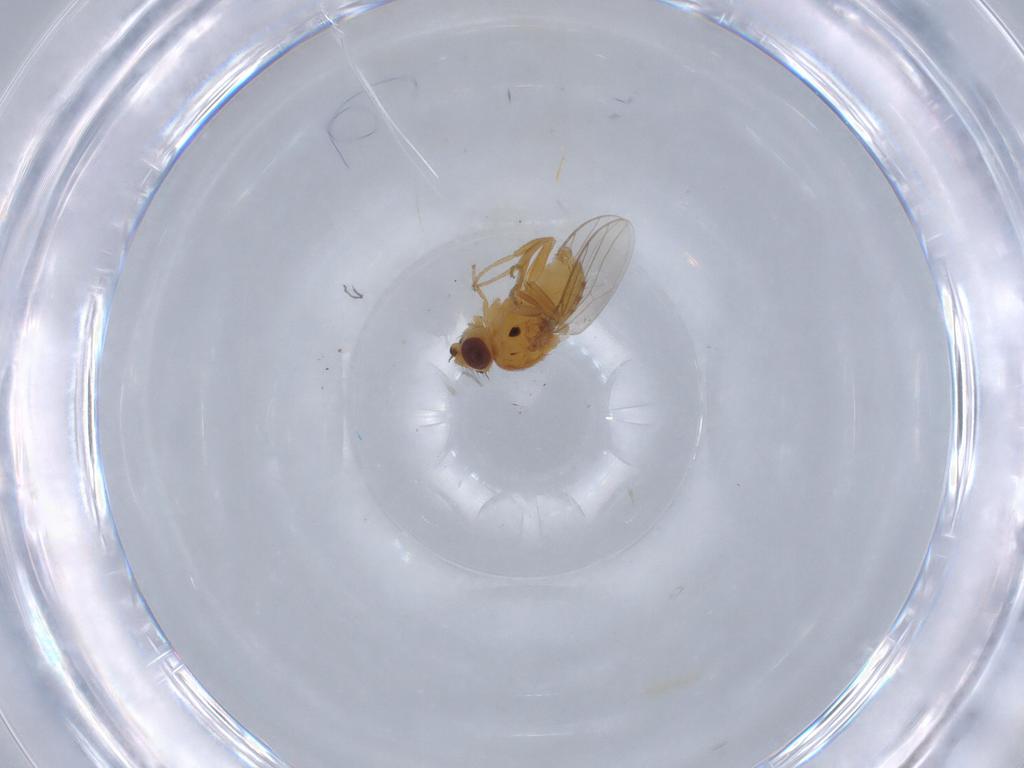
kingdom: Animalia
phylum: Arthropoda
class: Insecta
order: Diptera
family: Chloropidae
